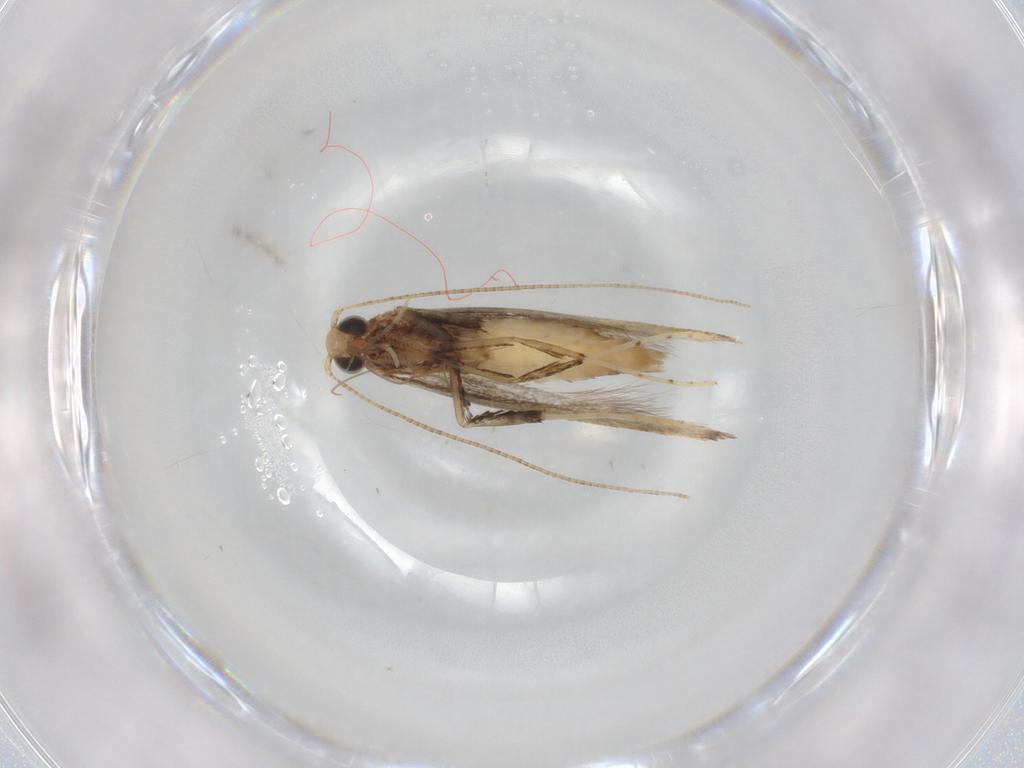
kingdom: Animalia
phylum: Arthropoda
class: Insecta
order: Lepidoptera
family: Gracillariidae
